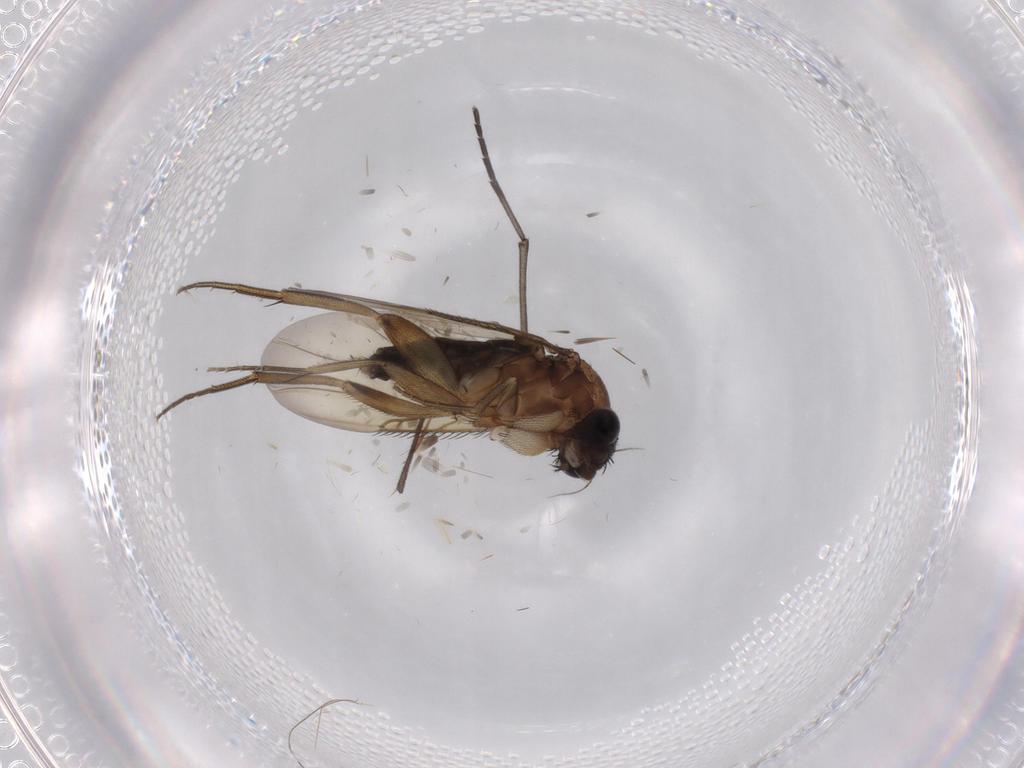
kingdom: Animalia
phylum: Arthropoda
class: Insecta
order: Diptera
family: Phoridae
